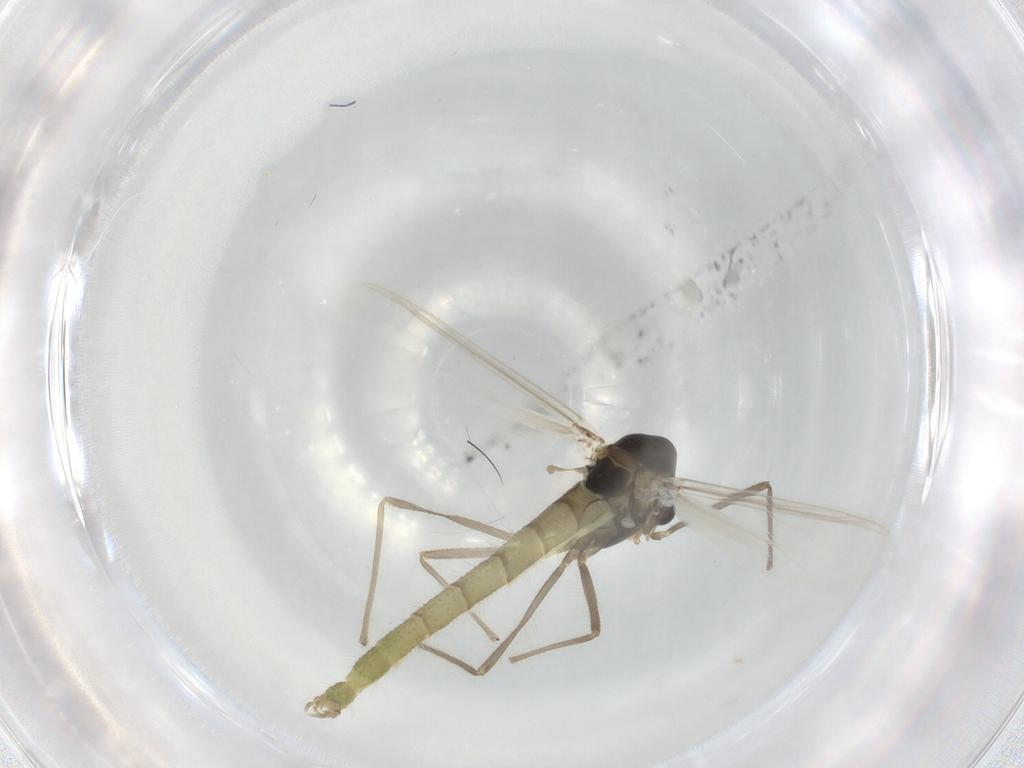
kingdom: Animalia
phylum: Arthropoda
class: Insecta
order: Diptera
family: Chironomidae
